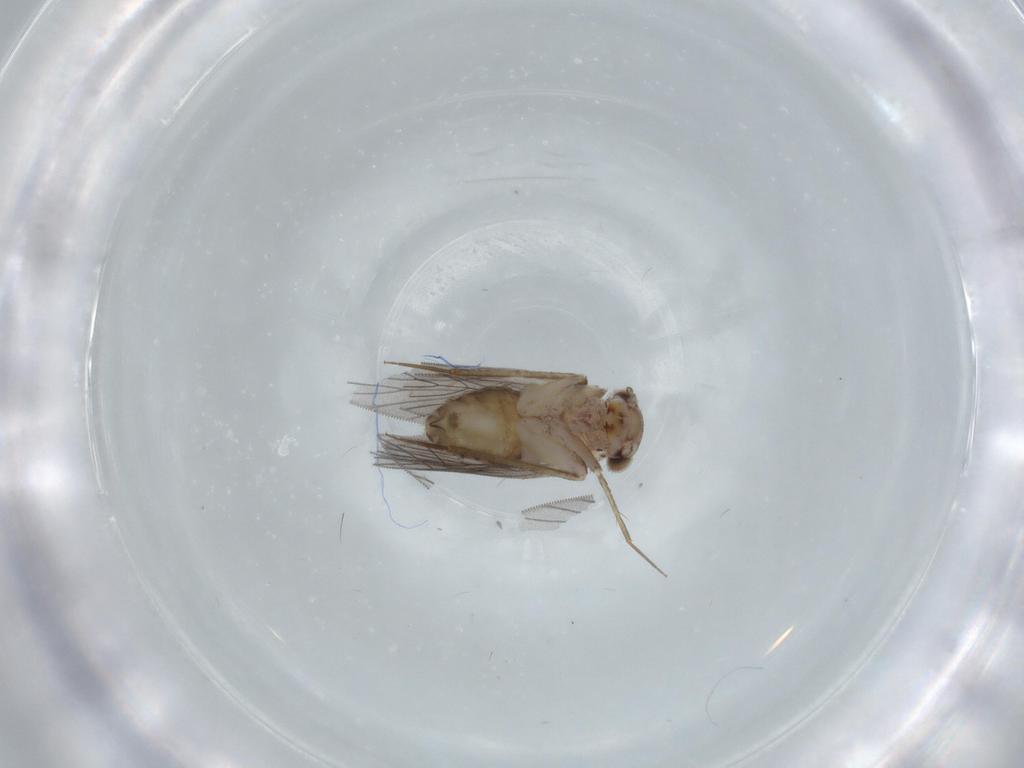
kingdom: Animalia
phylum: Arthropoda
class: Insecta
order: Psocodea
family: Lepidopsocidae
